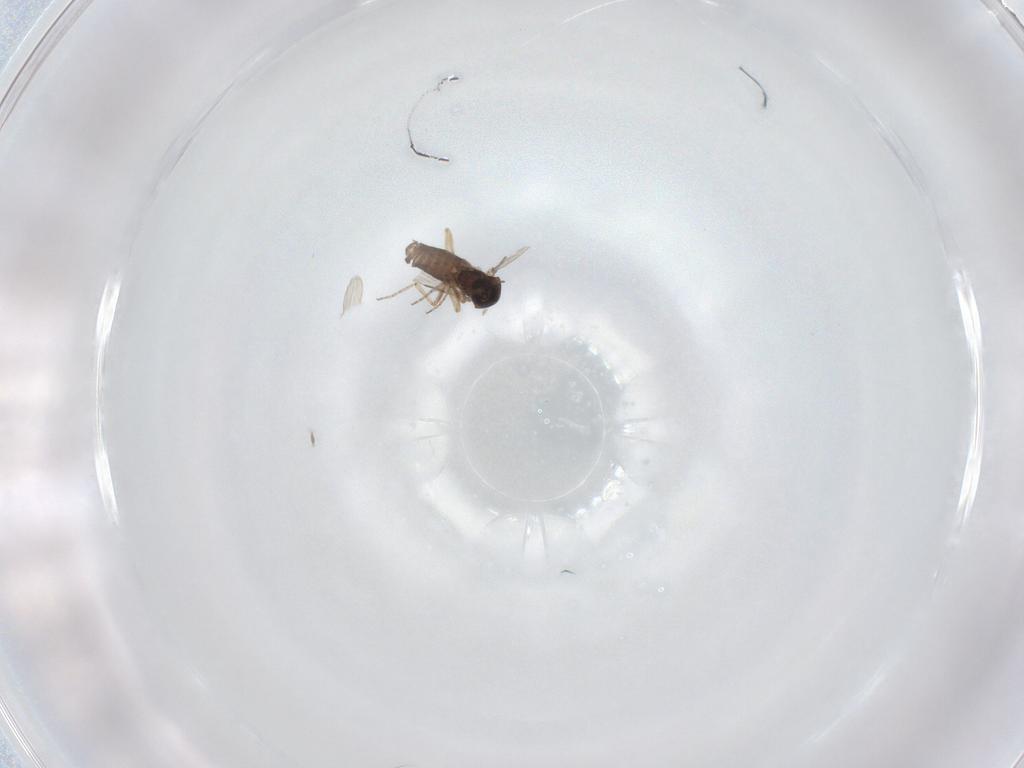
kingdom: Animalia
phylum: Arthropoda
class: Insecta
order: Diptera
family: Ceratopogonidae
